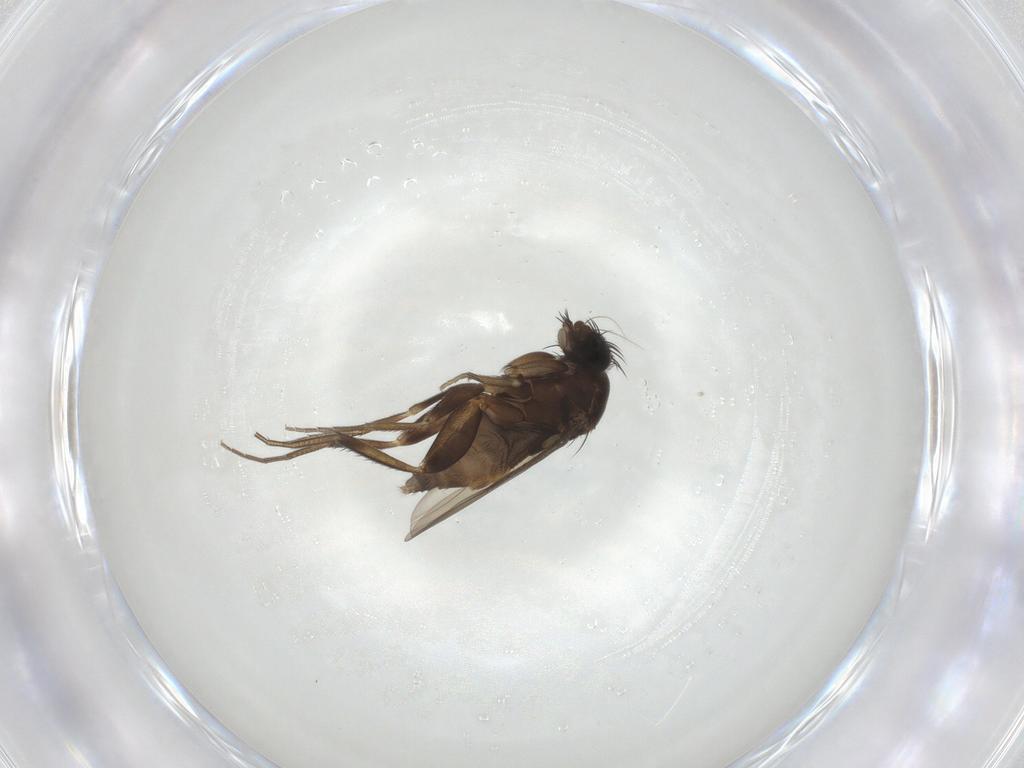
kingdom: Animalia
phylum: Arthropoda
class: Insecta
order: Diptera
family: Phoridae
